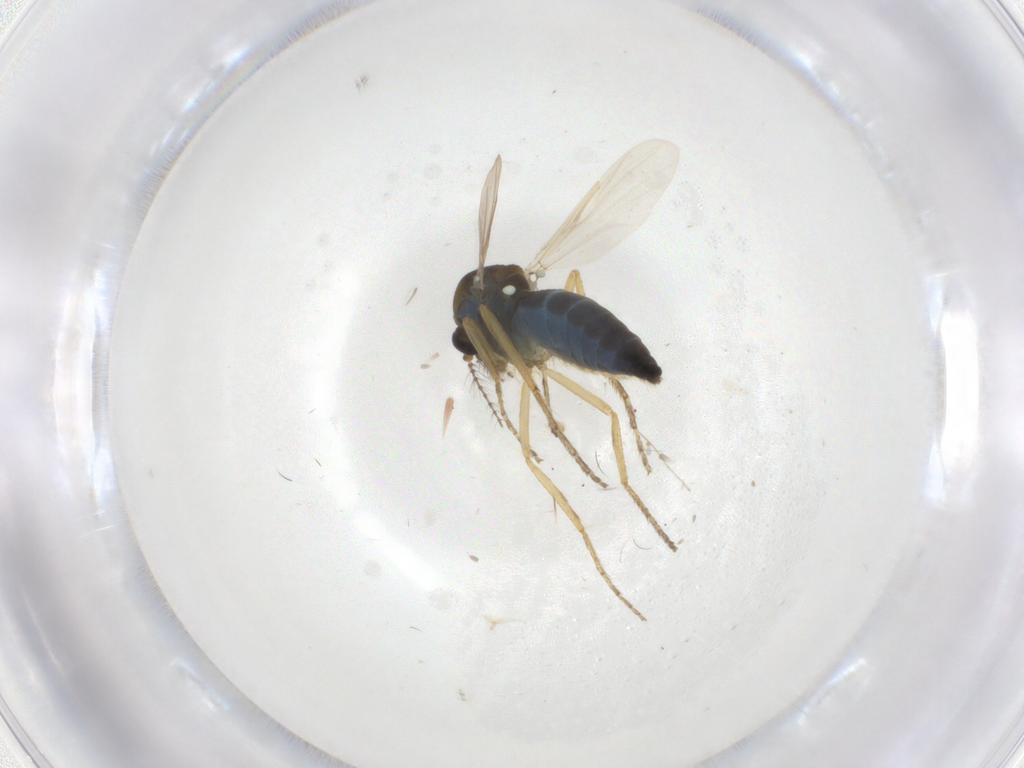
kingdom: Animalia
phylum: Arthropoda
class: Insecta
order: Diptera
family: Ceratopogonidae
